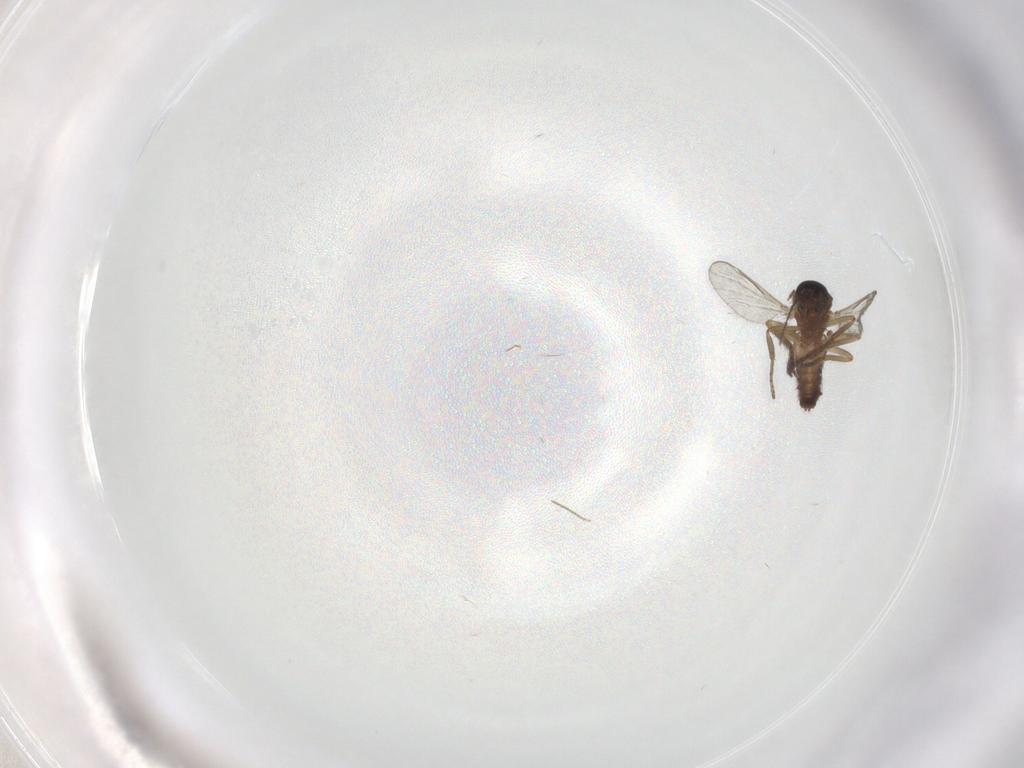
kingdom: Animalia
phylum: Arthropoda
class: Insecta
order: Diptera
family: Ceratopogonidae
